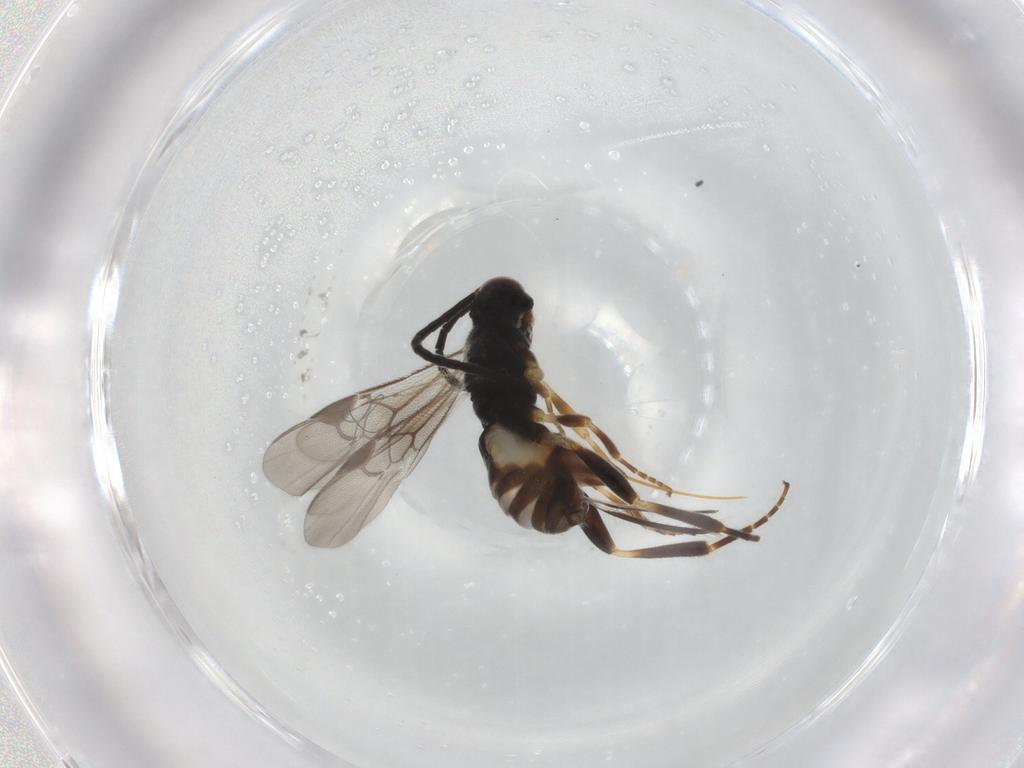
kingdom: Animalia
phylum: Arthropoda
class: Insecta
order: Hymenoptera
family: Braconidae
